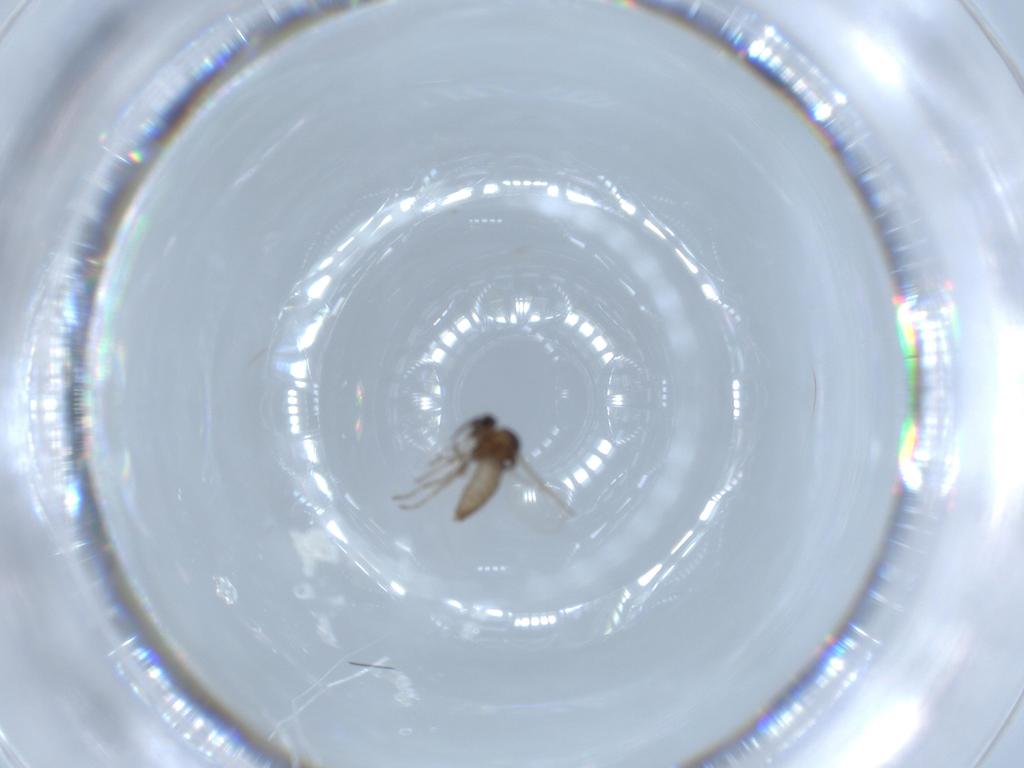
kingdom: Animalia
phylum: Arthropoda
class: Insecta
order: Diptera
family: Ceratopogonidae
